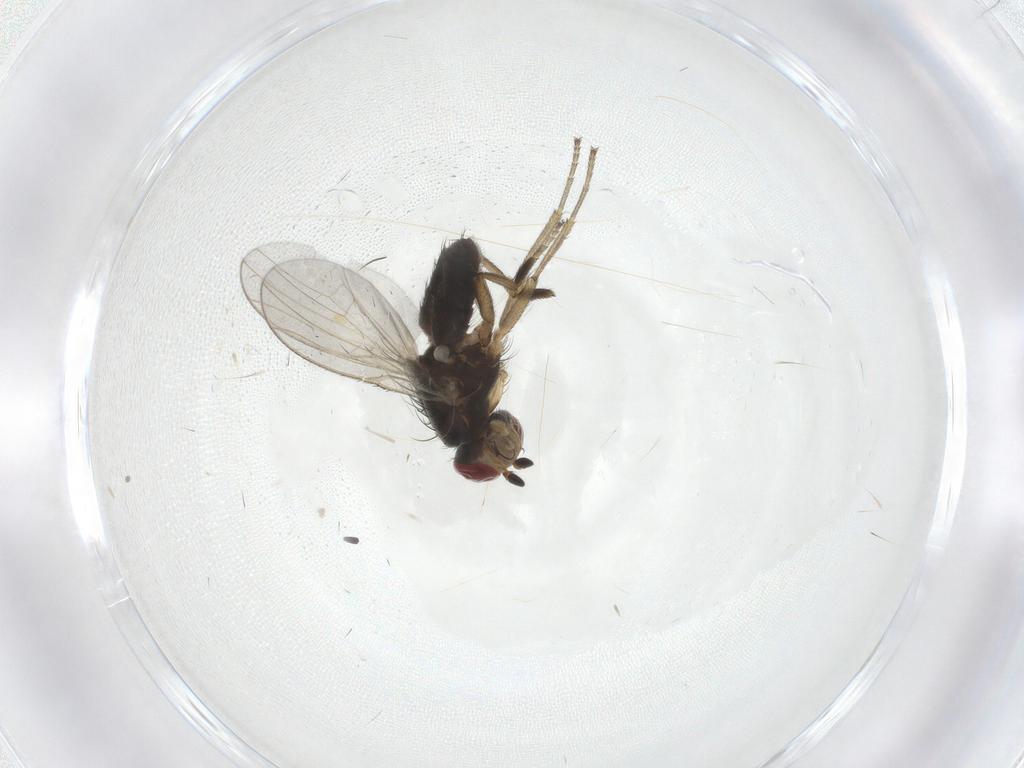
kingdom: Animalia
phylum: Arthropoda
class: Insecta
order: Diptera
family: Heleomyzidae
